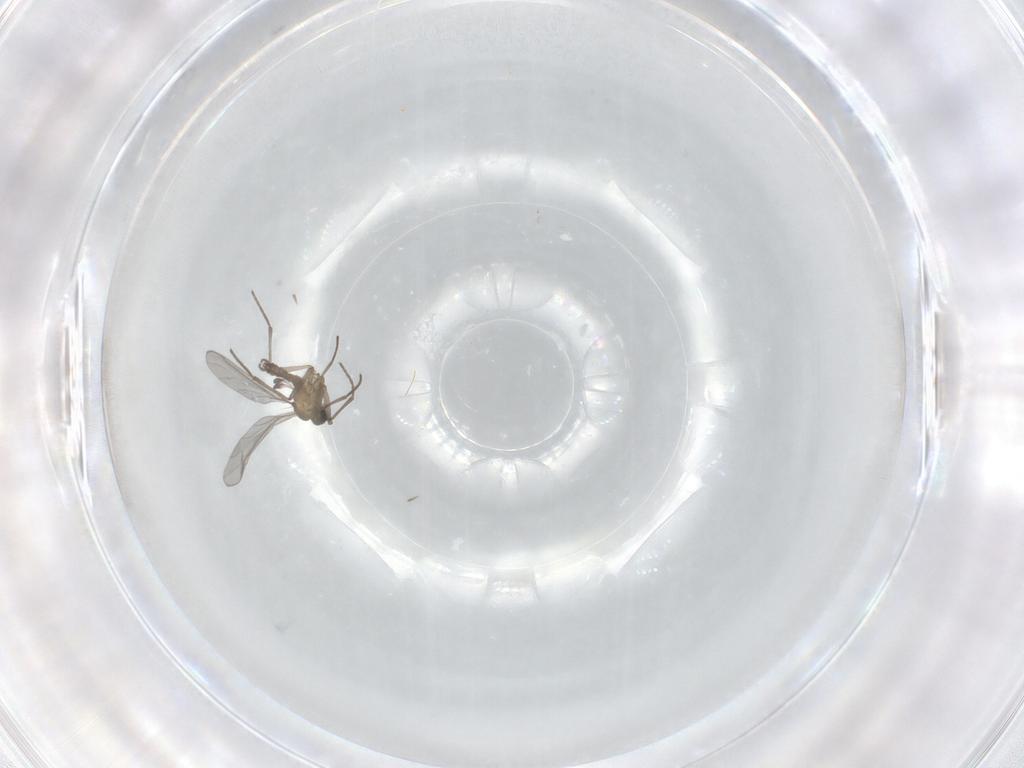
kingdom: Animalia
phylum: Arthropoda
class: Insecta
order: Diptera
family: Sciaridae
